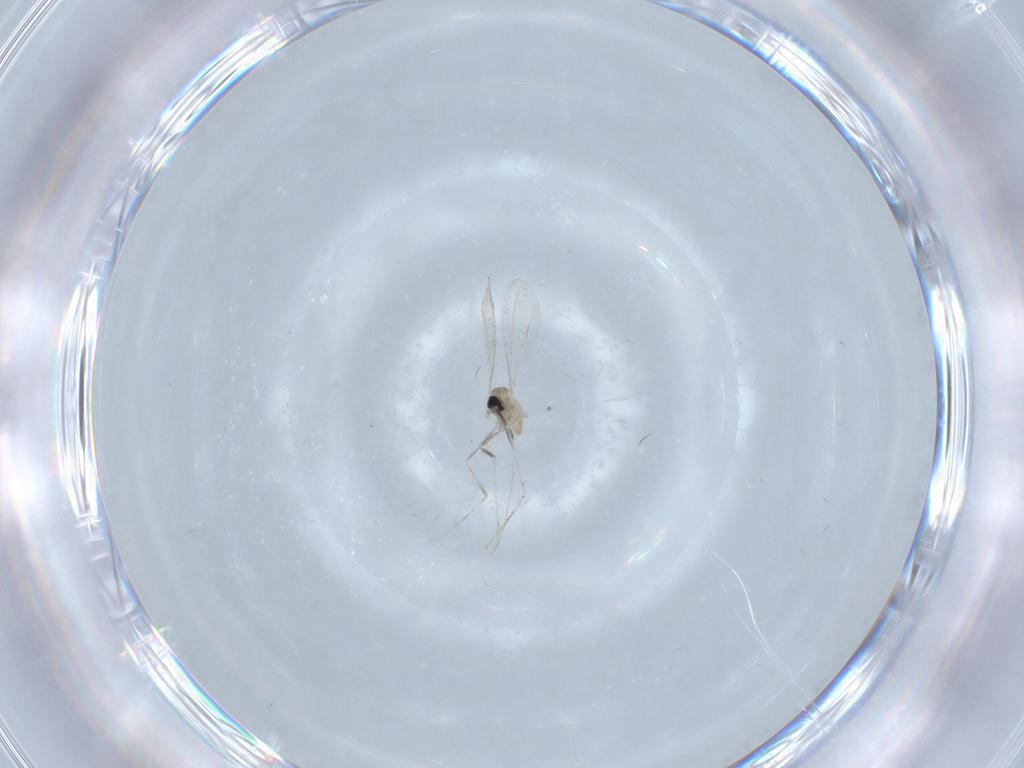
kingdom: Animalia
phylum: Arthropoda
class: Insecta
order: Diptera
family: Cecidomyiidae
